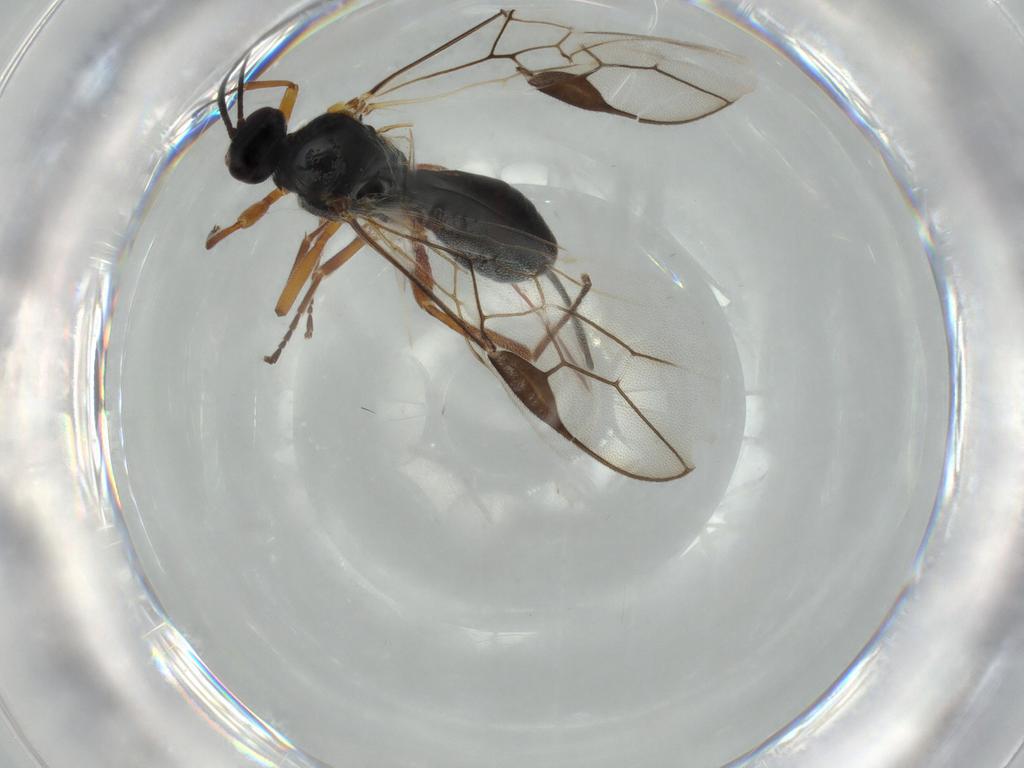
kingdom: Animalia
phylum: Arthropoda
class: Insecta
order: Hymenoptera
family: Braconidae
